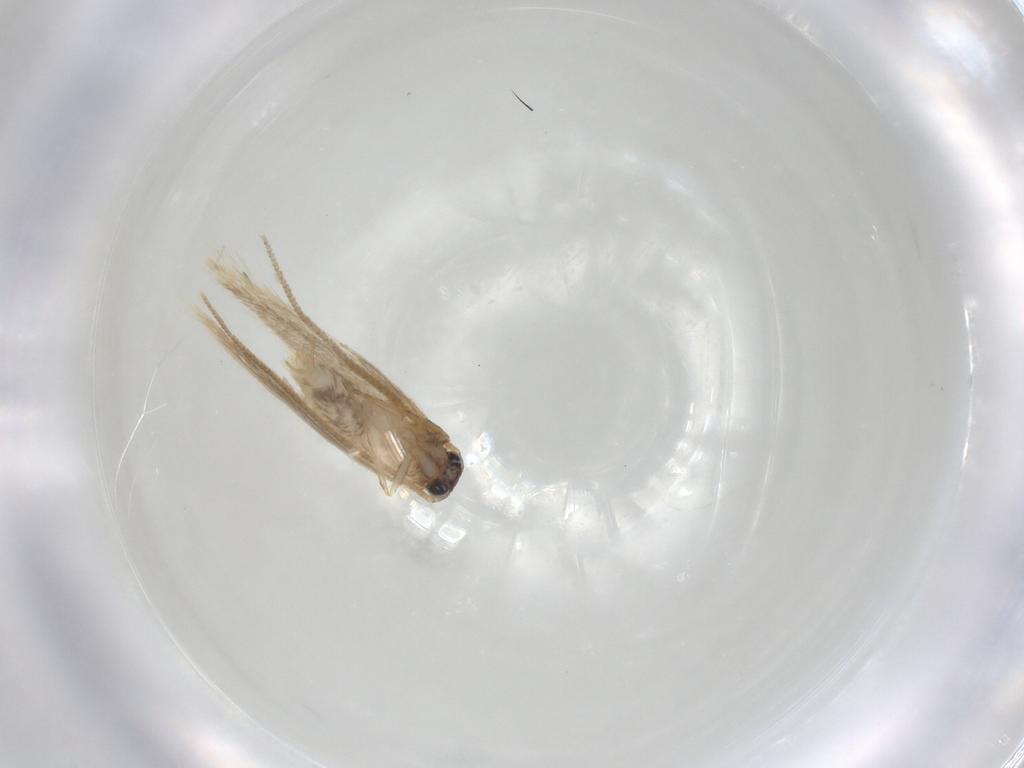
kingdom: Animalia
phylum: Arthropoda
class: Insecta
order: Lepidoptera
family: Tineidae
